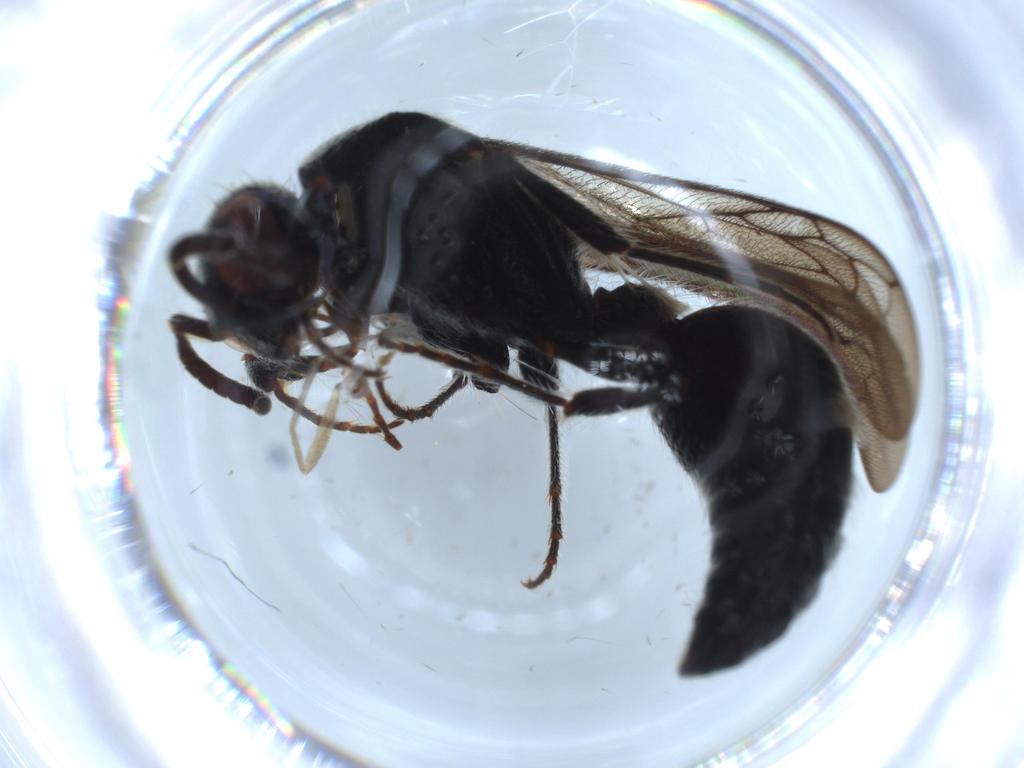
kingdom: Animalia
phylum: Arthropoda
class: Insecta
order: Hymenoptera
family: Formicidae
